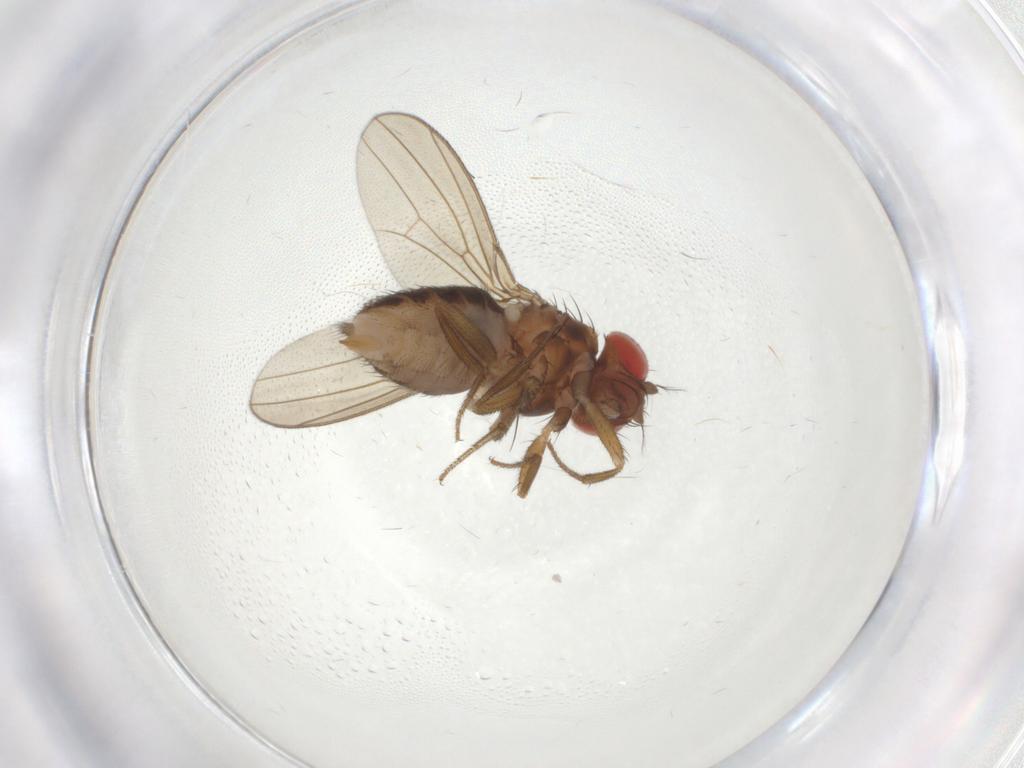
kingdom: Animalia
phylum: Arthropoda
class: Insecta
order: Diptera
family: Drosophilidae
